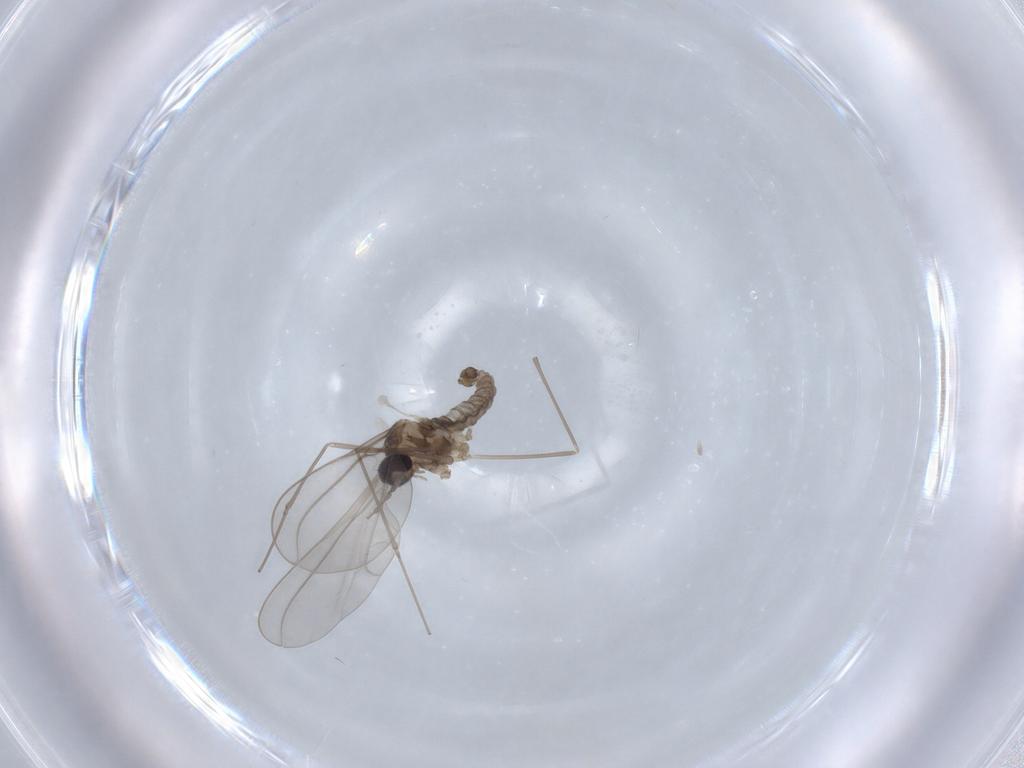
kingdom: Animalia
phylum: Arthropoda
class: Insecta
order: Diptera
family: Cecidomyiidae
